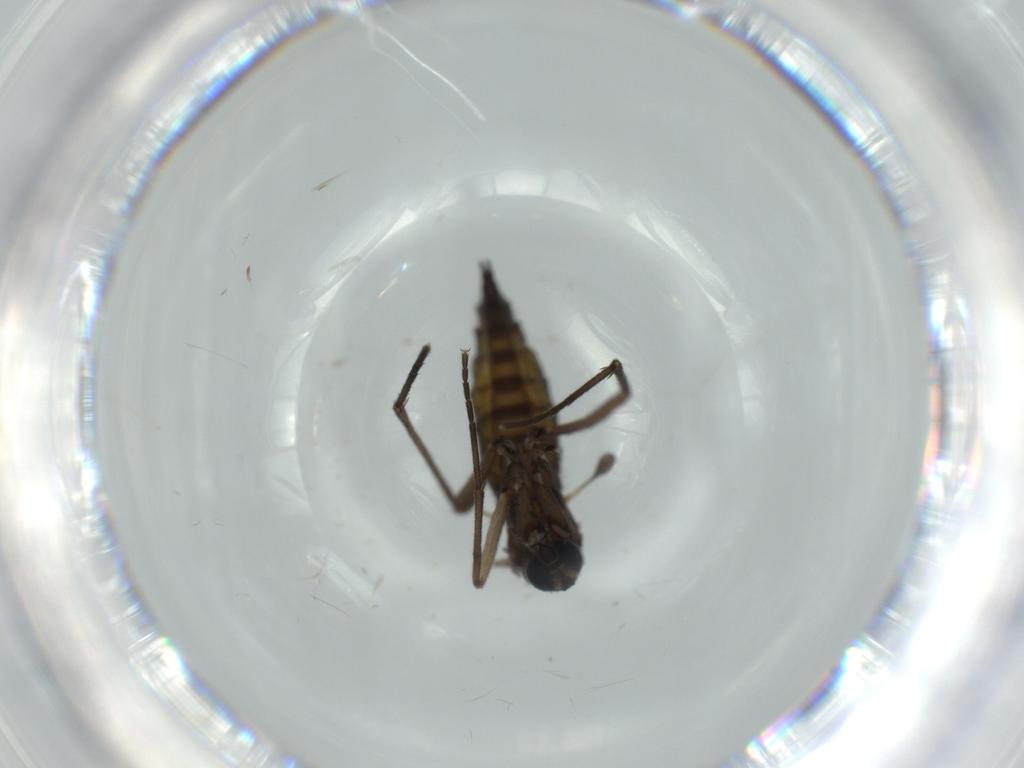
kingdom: Animalia
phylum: Arthropoda
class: Insecta
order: Diptera
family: Sciaridae
